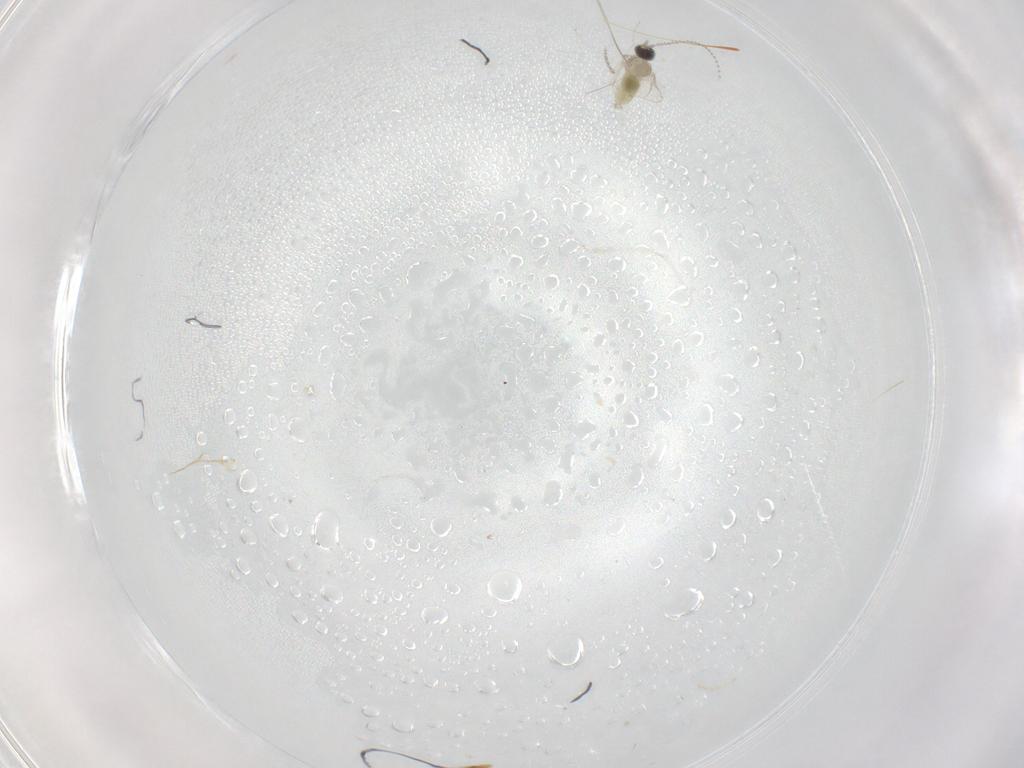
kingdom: Animalia
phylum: Arthropoda
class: Insecta
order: Diptera
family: Cecidomyiidae
